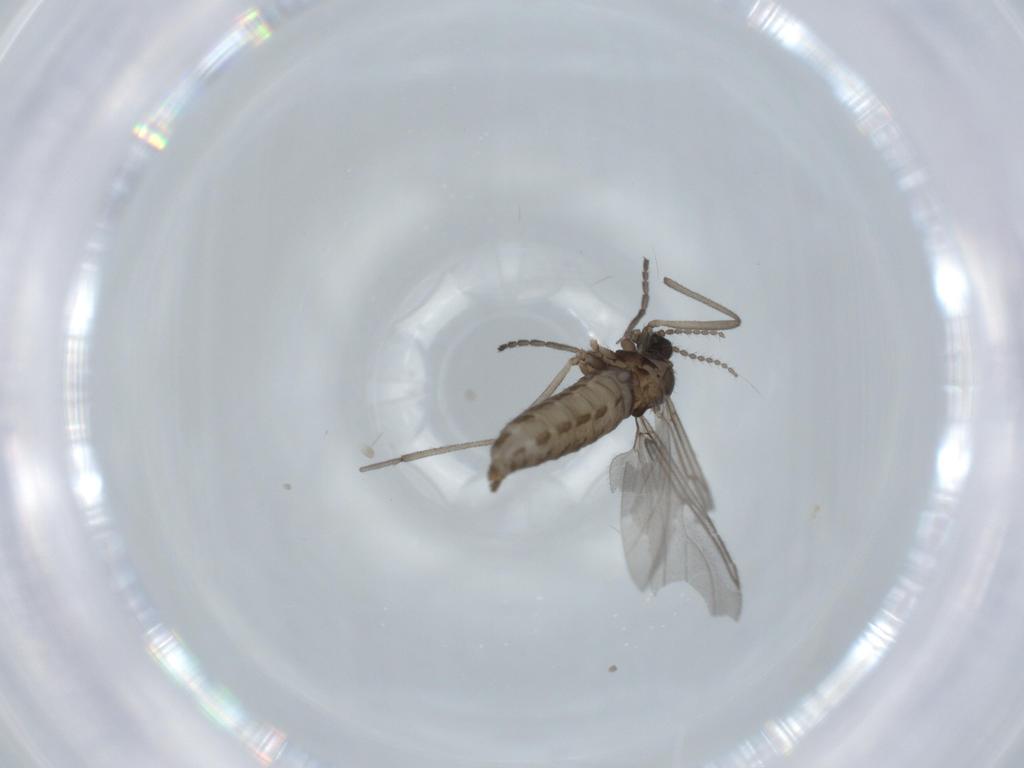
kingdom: Animalia
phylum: Arthropoda
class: Insecta
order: Diptera
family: Cecidomyiidae
